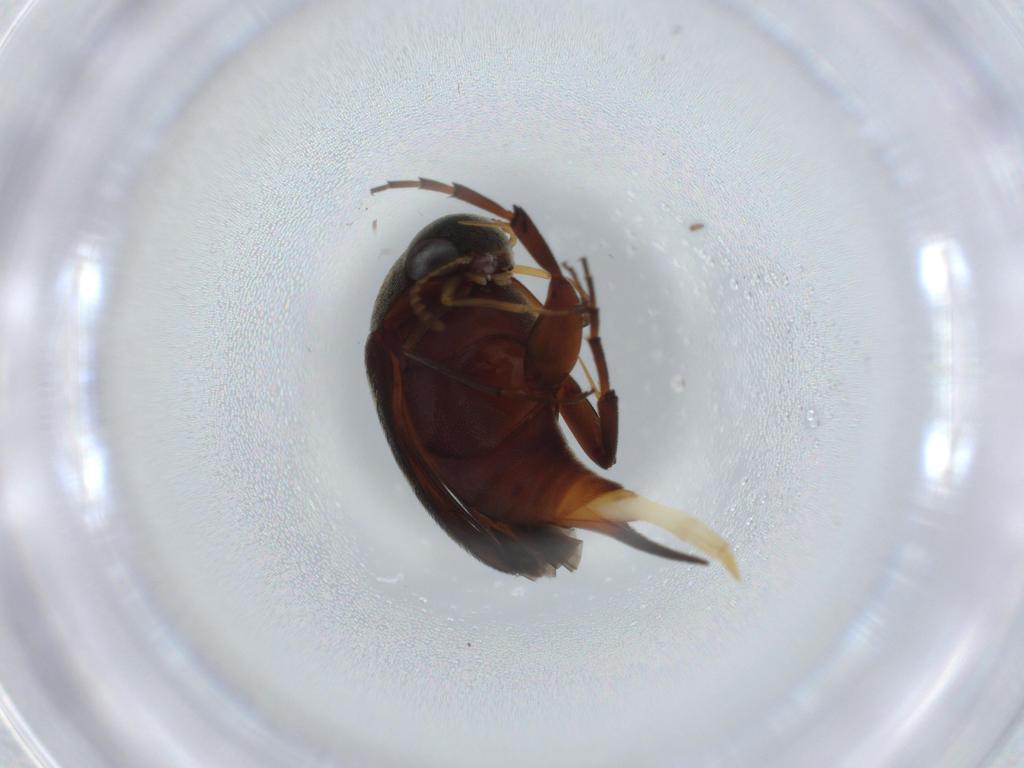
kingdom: Animalia
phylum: Arthropoda
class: Insecta
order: Coleoptera
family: Mordellidae
